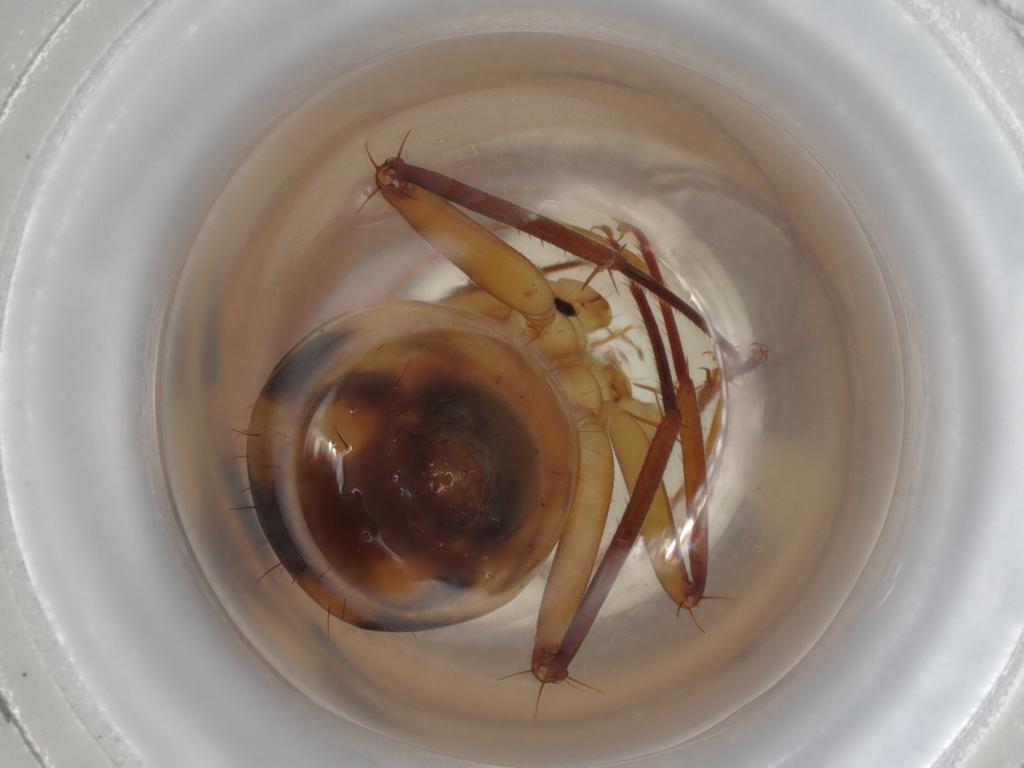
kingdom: Animalia
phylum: Arthropoda
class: Insecta
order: Hymenoptera
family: Formicidae
